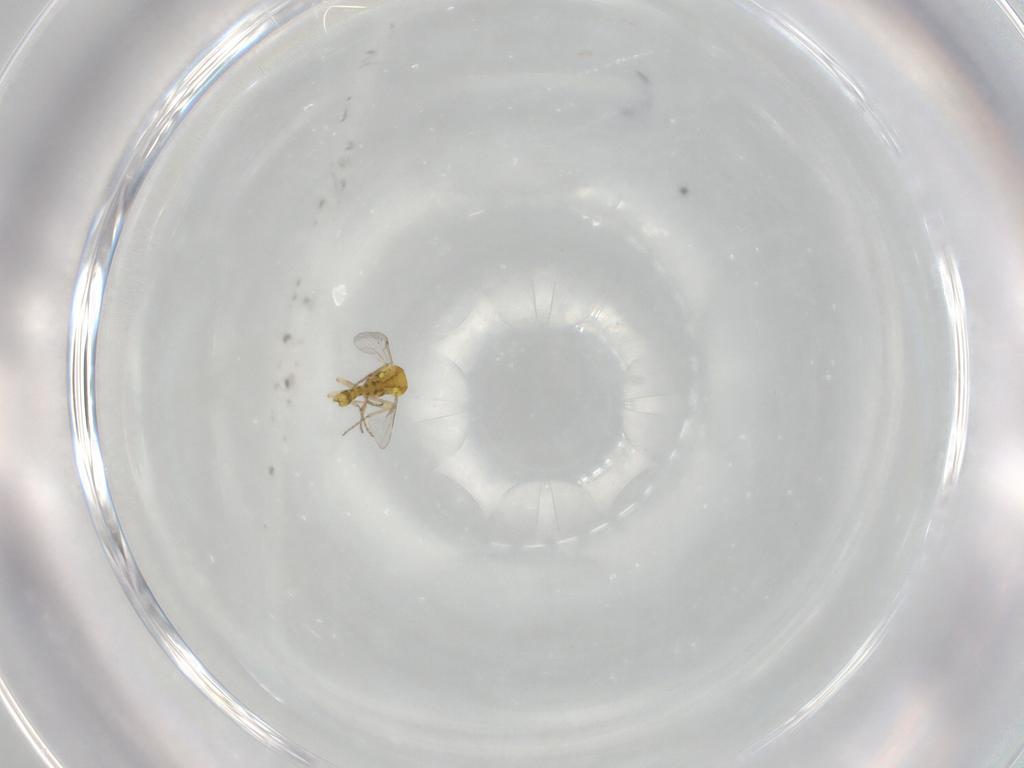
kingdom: Animalia
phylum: Arthropoda
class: Insecta
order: Diptera
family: Ceratopogonidae
